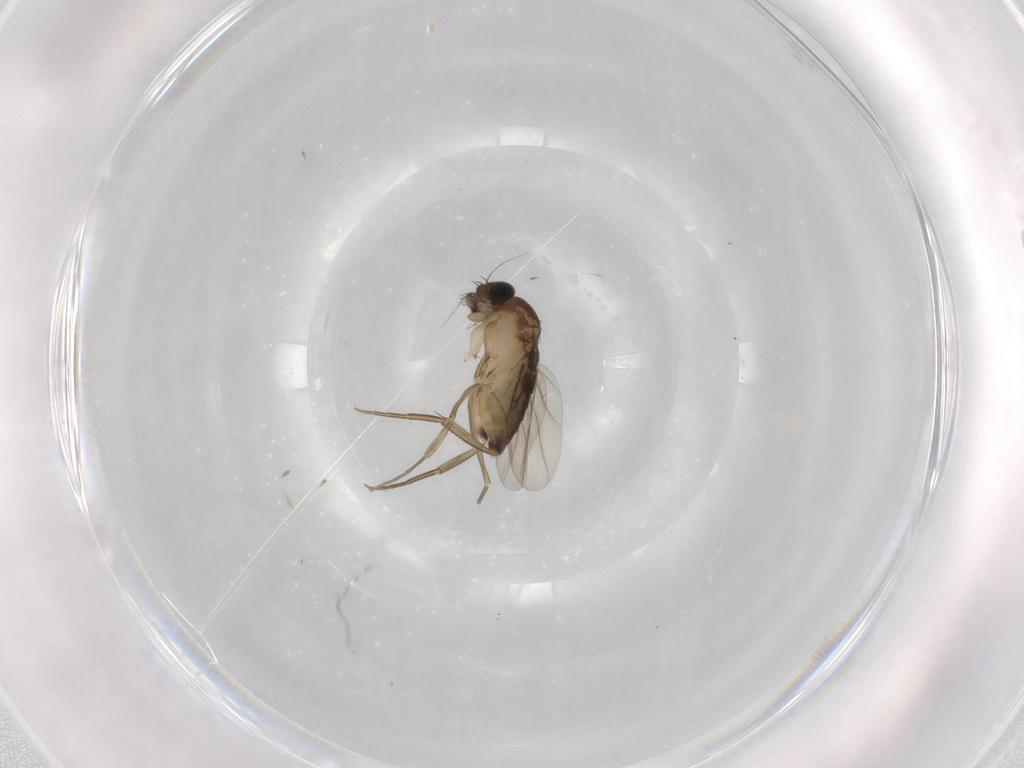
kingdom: Animalia
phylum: Arthropoda
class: Insecta
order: Diptera
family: Phoridae
